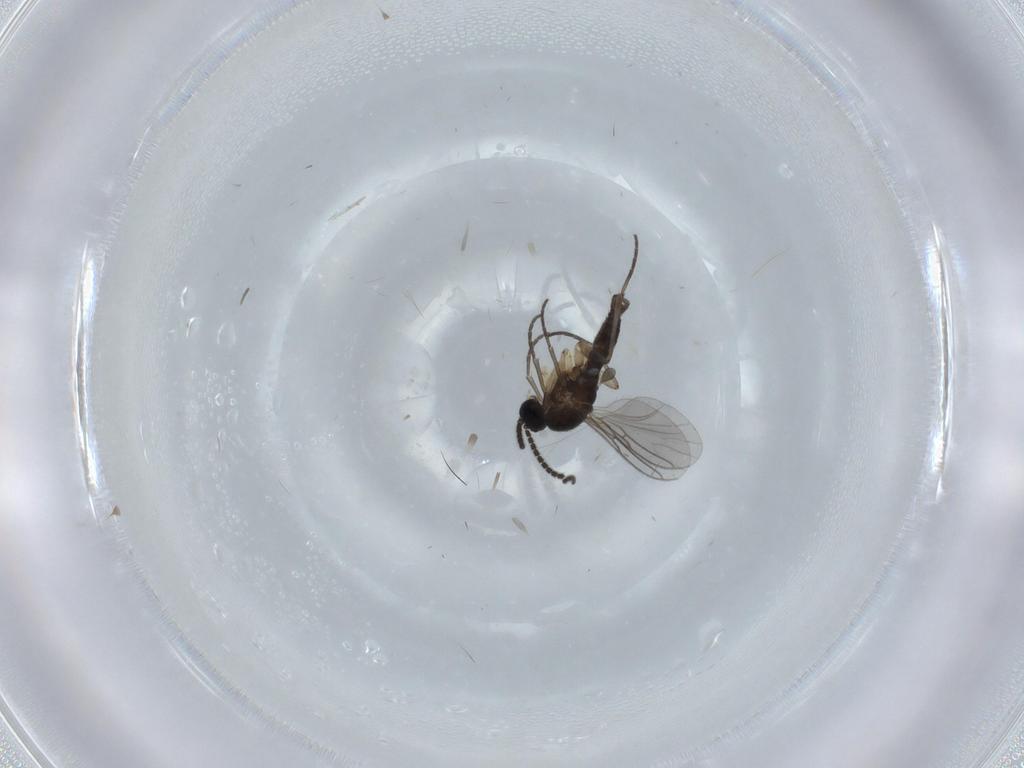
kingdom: Animalia
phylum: Arthropoda
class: Insecta
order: Diptera
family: Sciaridae
